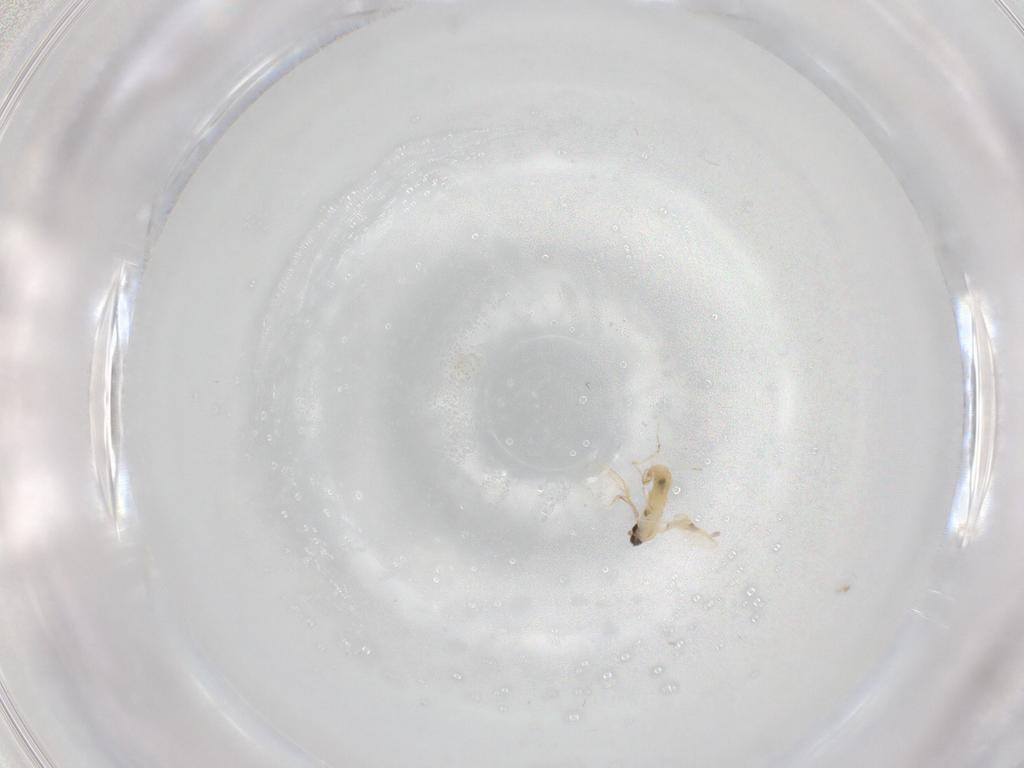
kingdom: Animalia
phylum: Arthropoda
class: Insecta
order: Diptera
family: Cecidomyiidae
